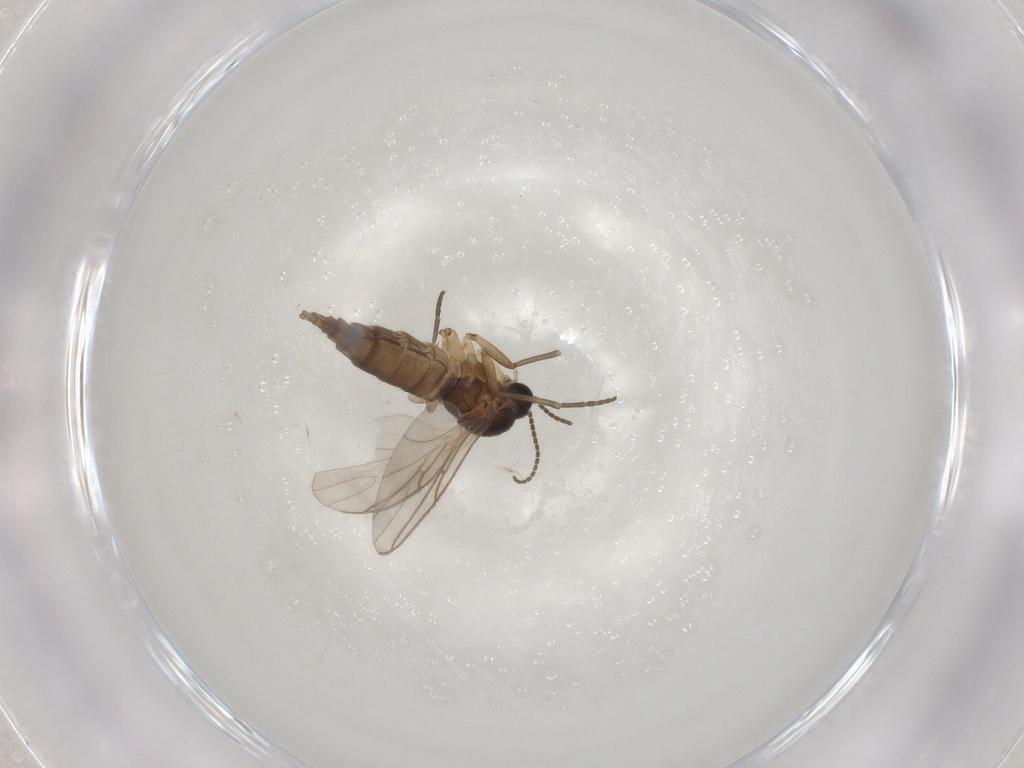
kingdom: Animalia
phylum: Arthropoda
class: Insecta
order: Diptera
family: Sciaridae
